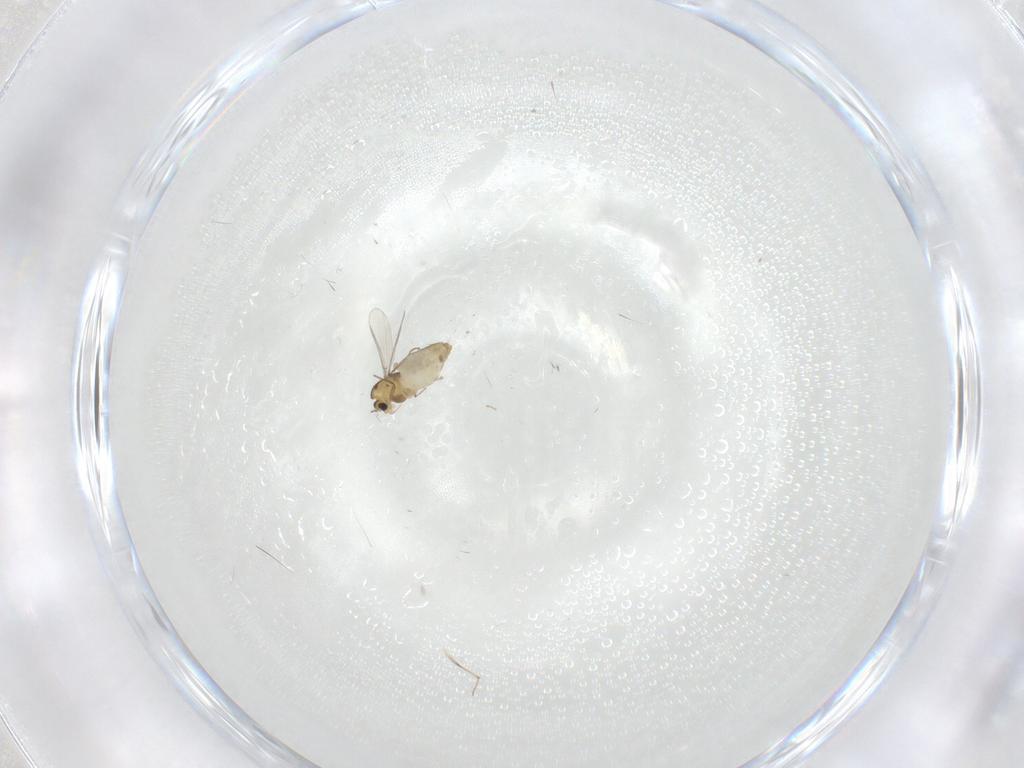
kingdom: Animalia
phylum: Arthropoda
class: Insecta
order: Diptera
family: Chironomidae
